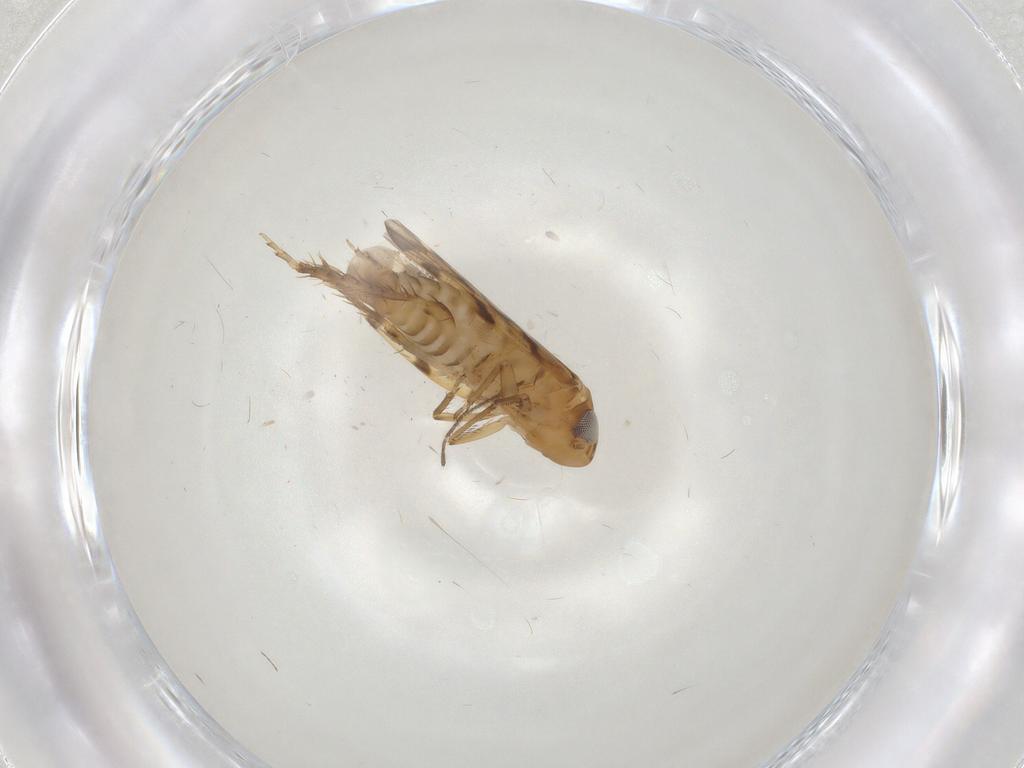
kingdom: Animalia
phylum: Arthropoda
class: Insecta
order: Hemiptera
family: Cicadellidae
